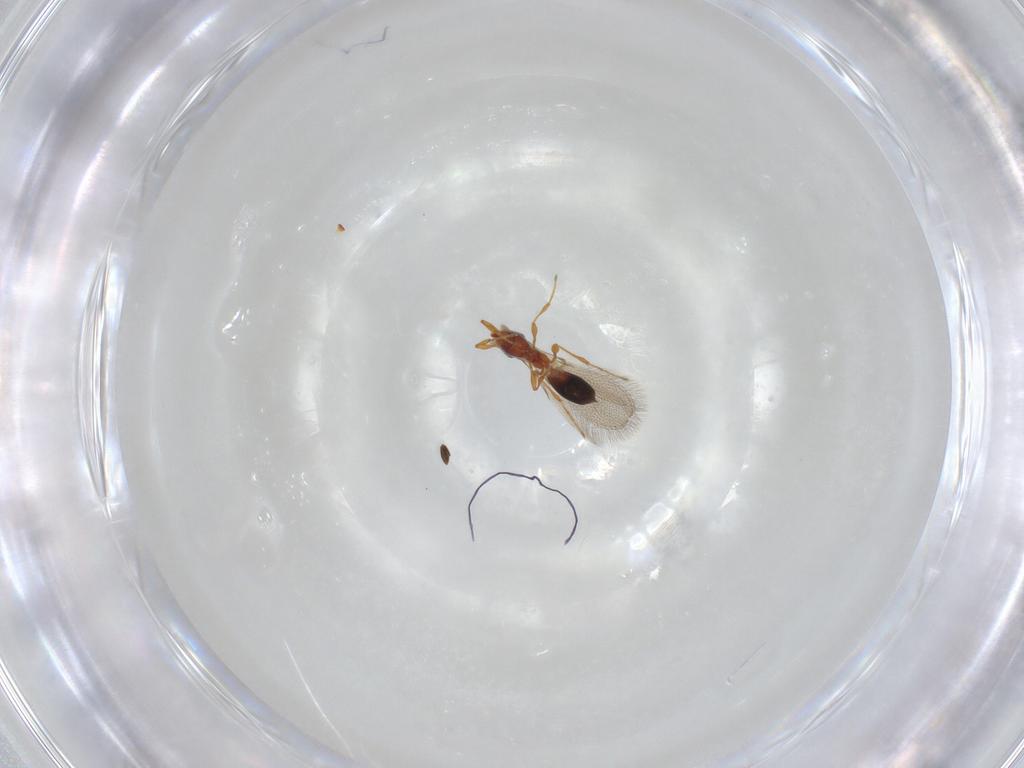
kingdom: Animalia
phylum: Arthropoda
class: Insecta
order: Hymenoptera
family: Diapriidae
